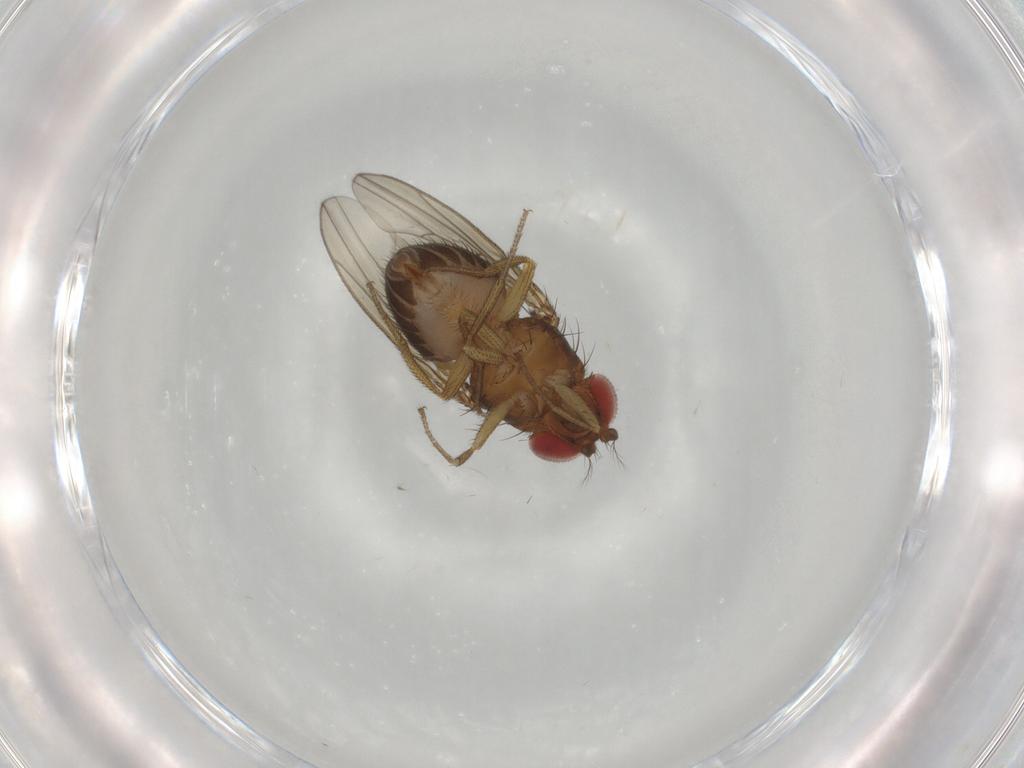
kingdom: Animalia
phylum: Arthropoda
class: Insecta
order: Diptera
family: Drosophilidae
